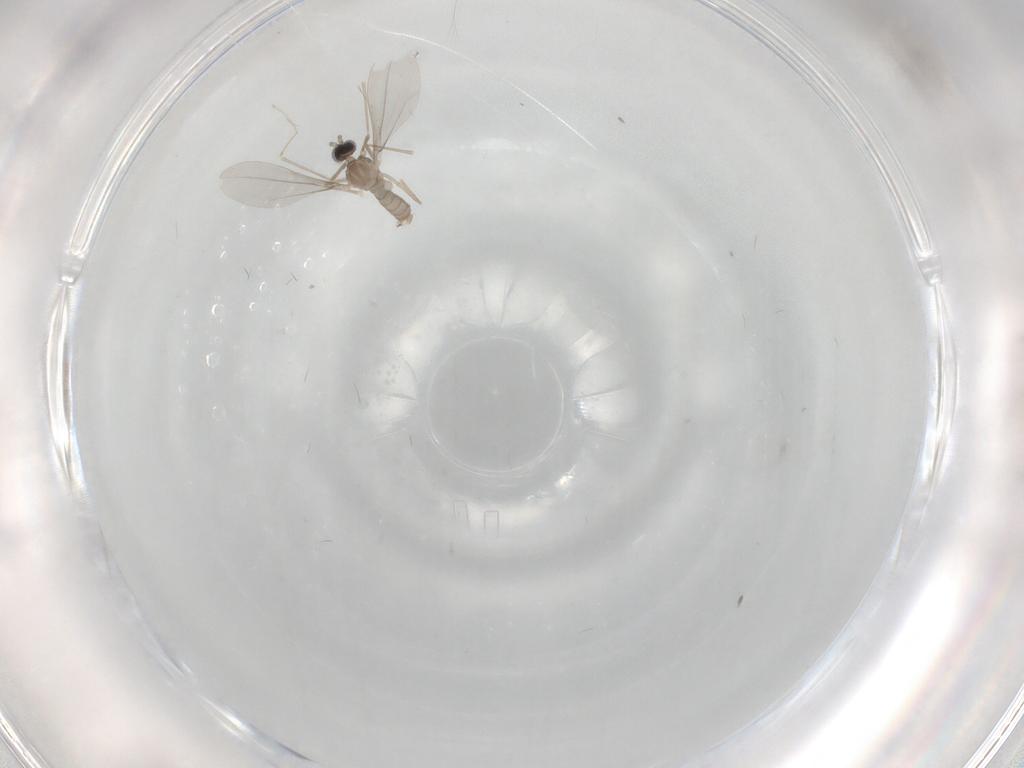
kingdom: Animalia
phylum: Arthropoda
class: Insecta
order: Diptera
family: Cecidomyiidae
